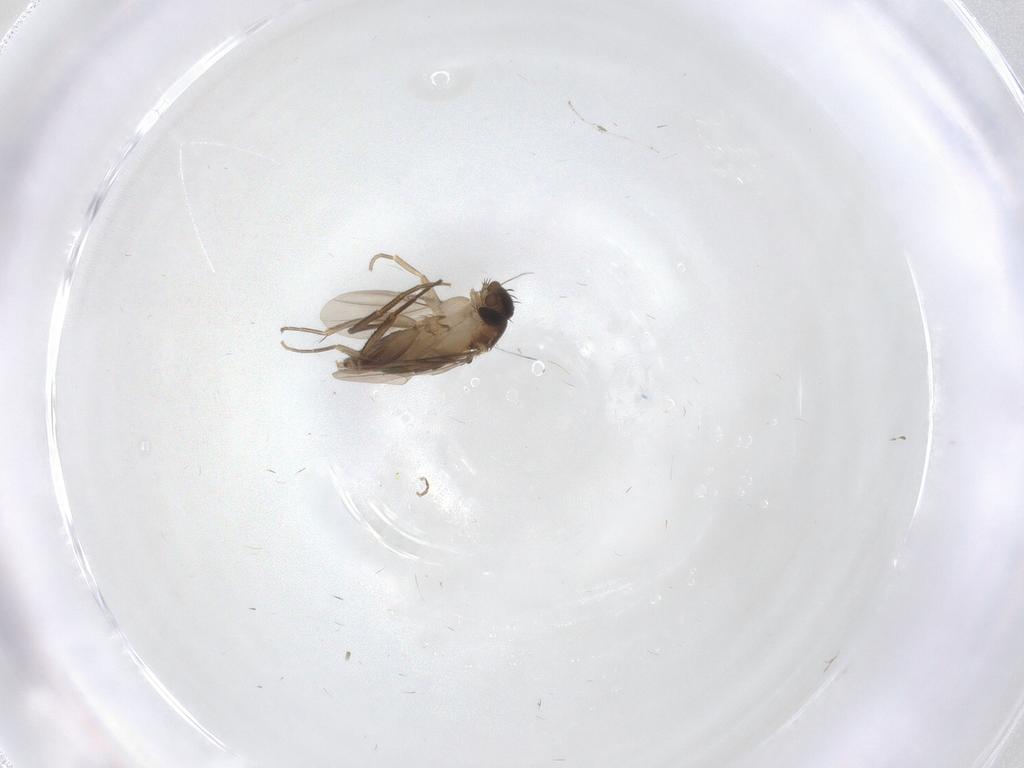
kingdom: Animalia
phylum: Arthropoda
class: Insecta
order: Diptera
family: Phoridae
